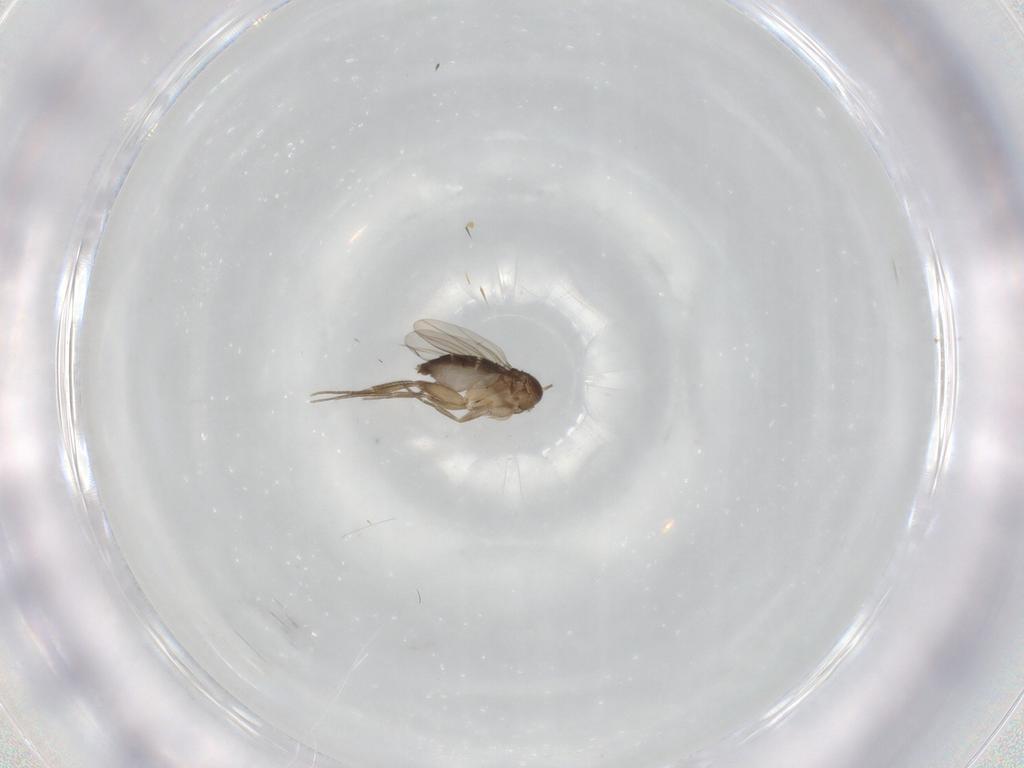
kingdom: Animalia
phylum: Arthropoda
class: Insecta
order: Diptera
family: Phoridae
